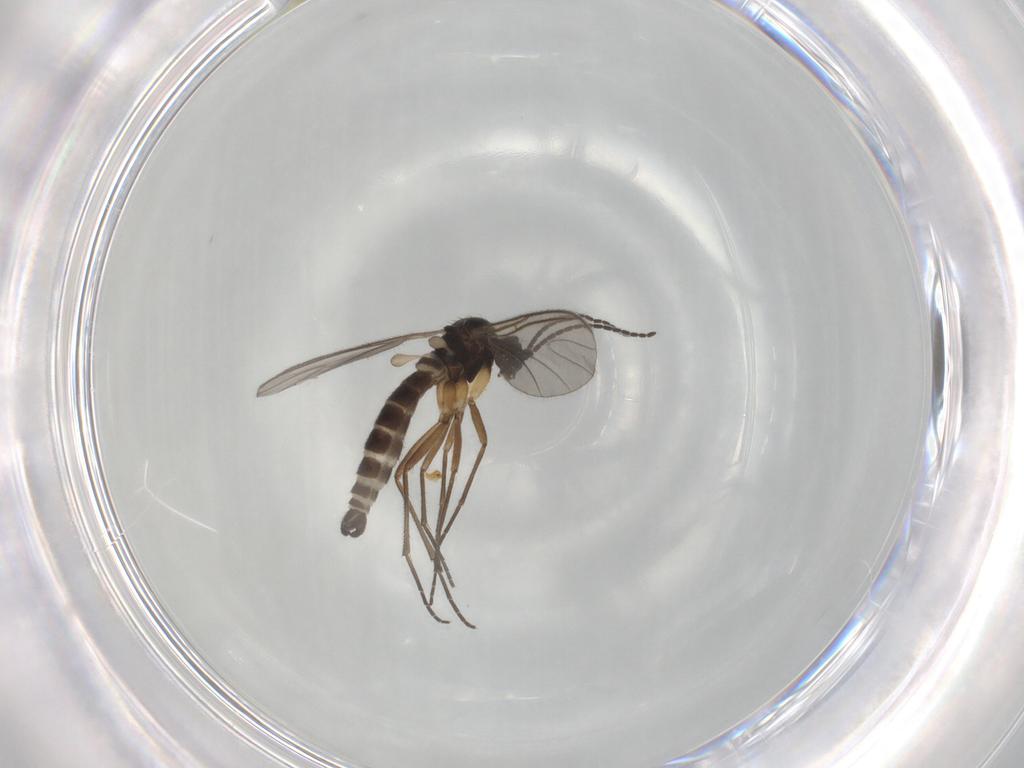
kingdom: Animalia
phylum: Arthropoda
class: Insecta
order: Diptera
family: Sciaridae
